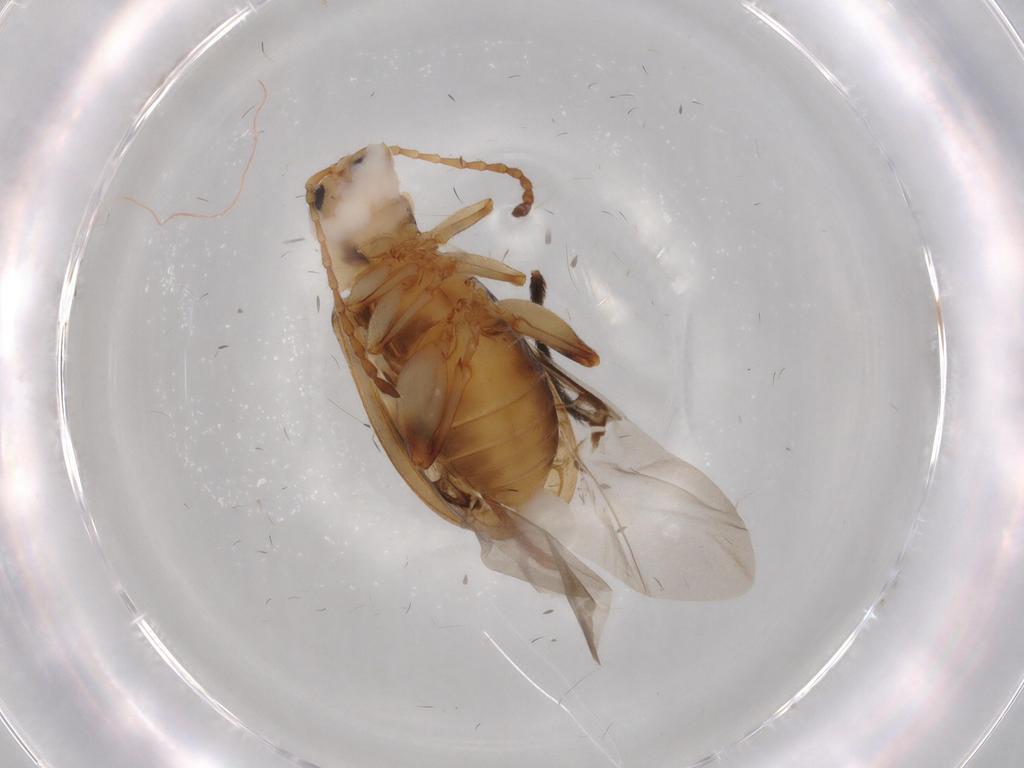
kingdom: Animalia
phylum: Arthropoda
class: Insecta
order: Coleoptera
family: Chrysomelidae
